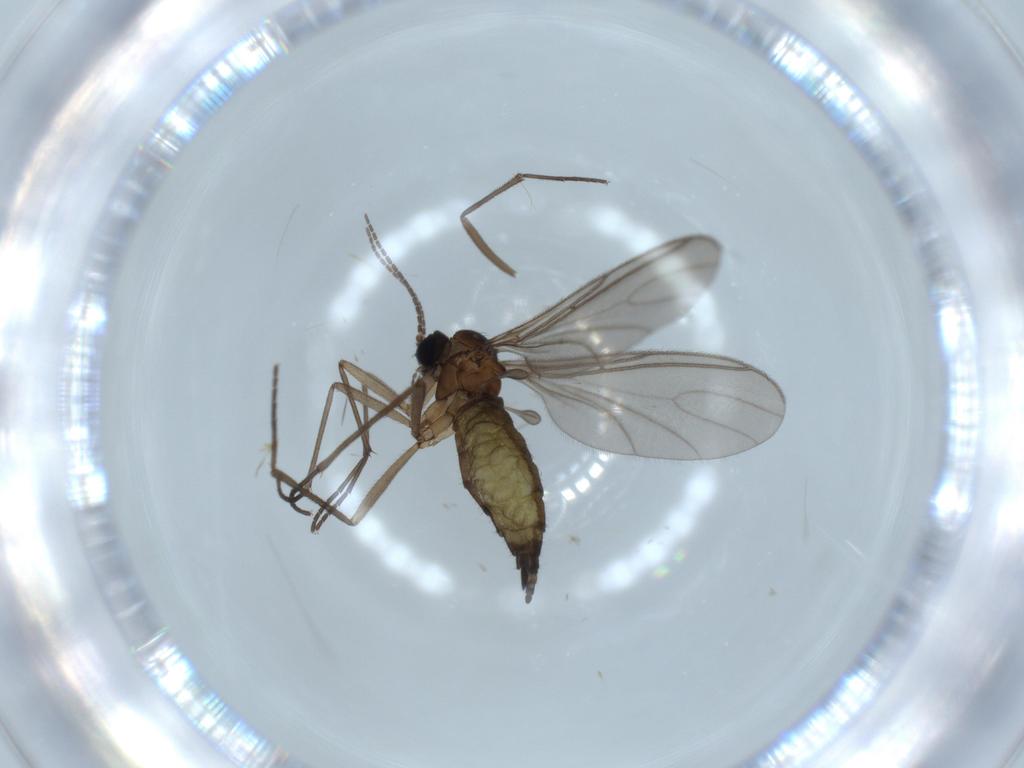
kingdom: Animalia
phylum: Arthropoda
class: Insecta
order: Diptera
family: Sciaridae
